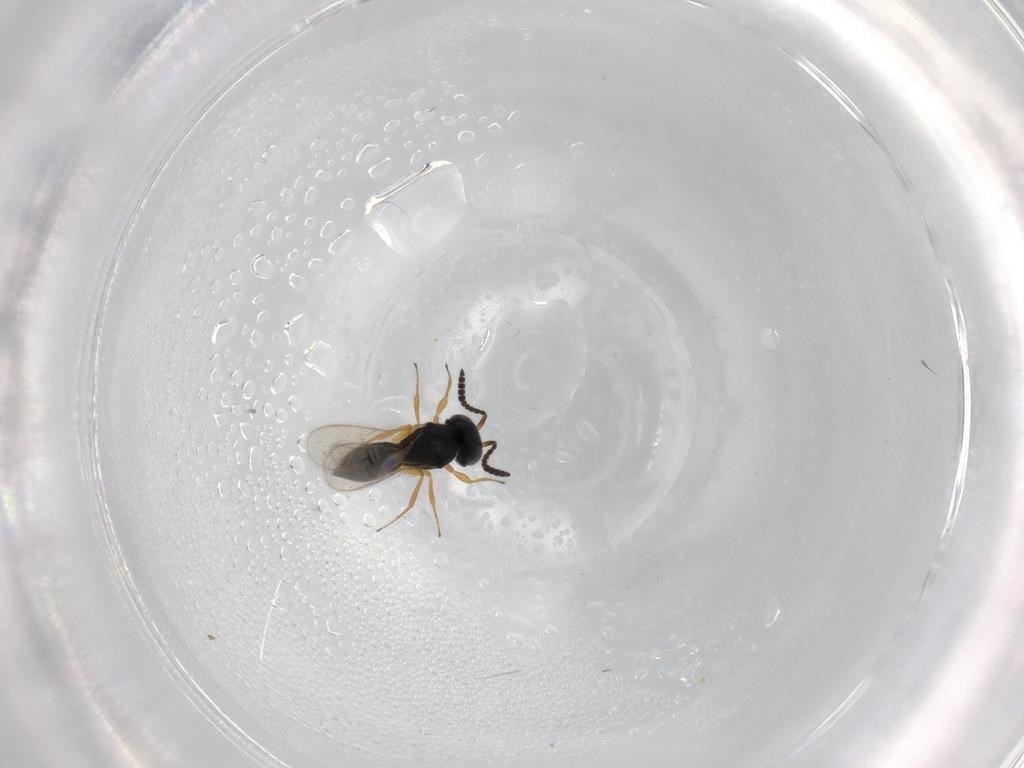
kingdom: Animalia
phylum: Arthropoda
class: Insecta
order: Hymenoptera
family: Scelionidae
